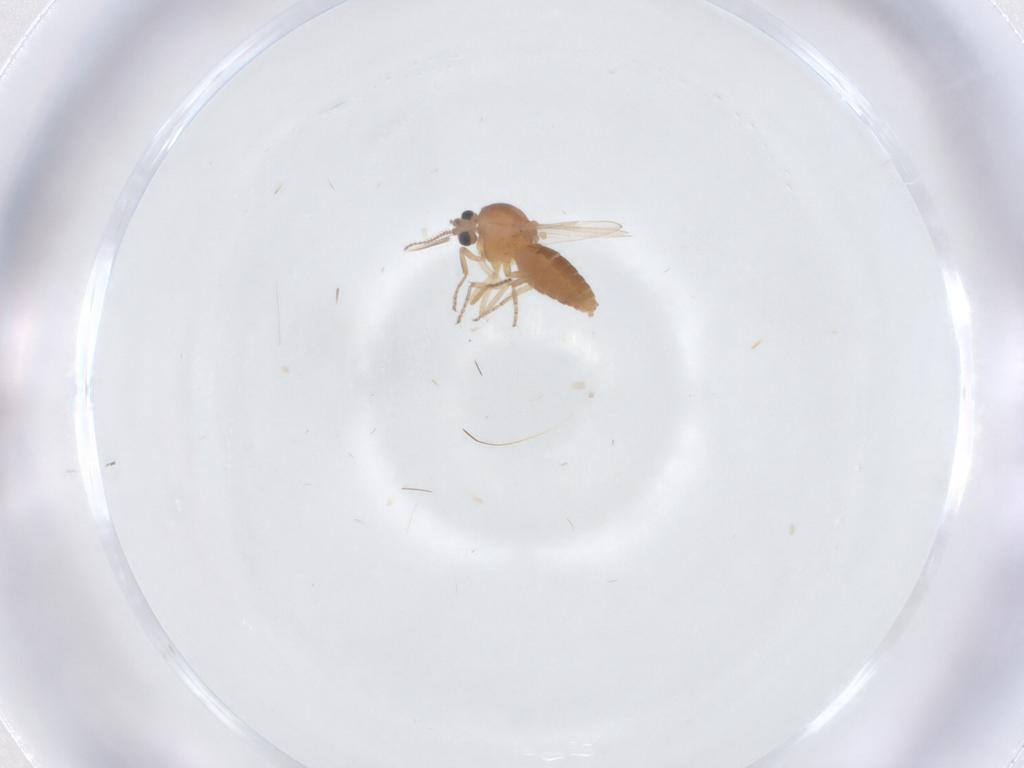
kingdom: Animalia
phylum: Arthropoda
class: Insecta
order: Diptera
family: Ceratopogonidae
